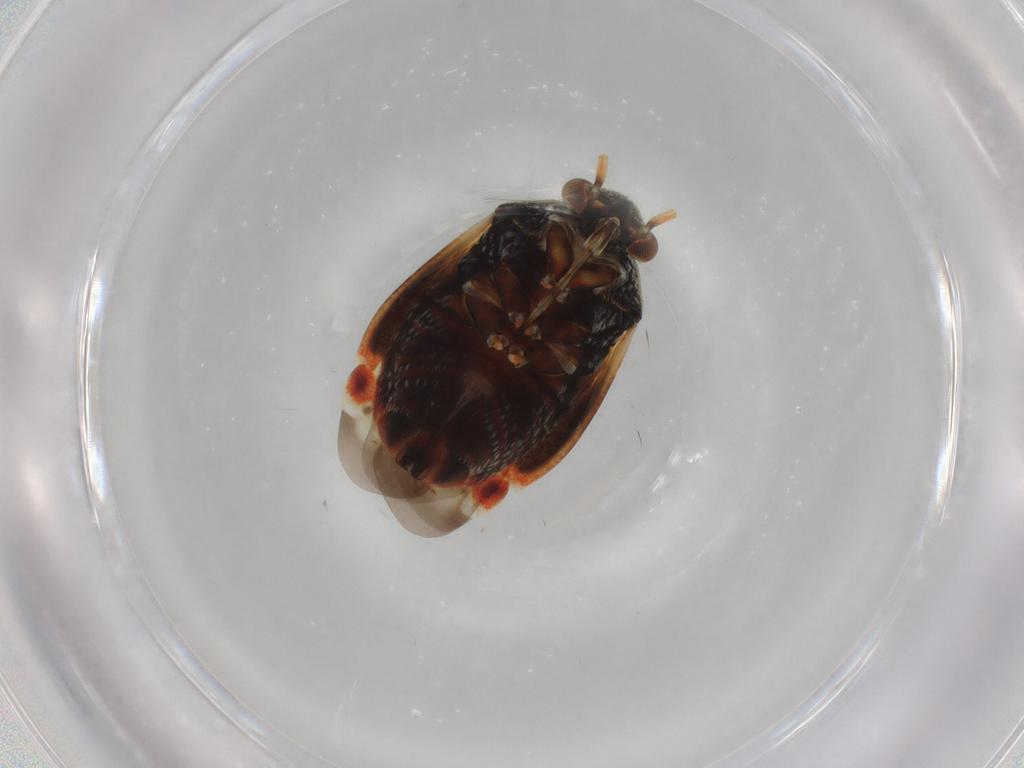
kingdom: Animalia
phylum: Arthropoda
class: Insecta
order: Hemiptera
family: Miridae
